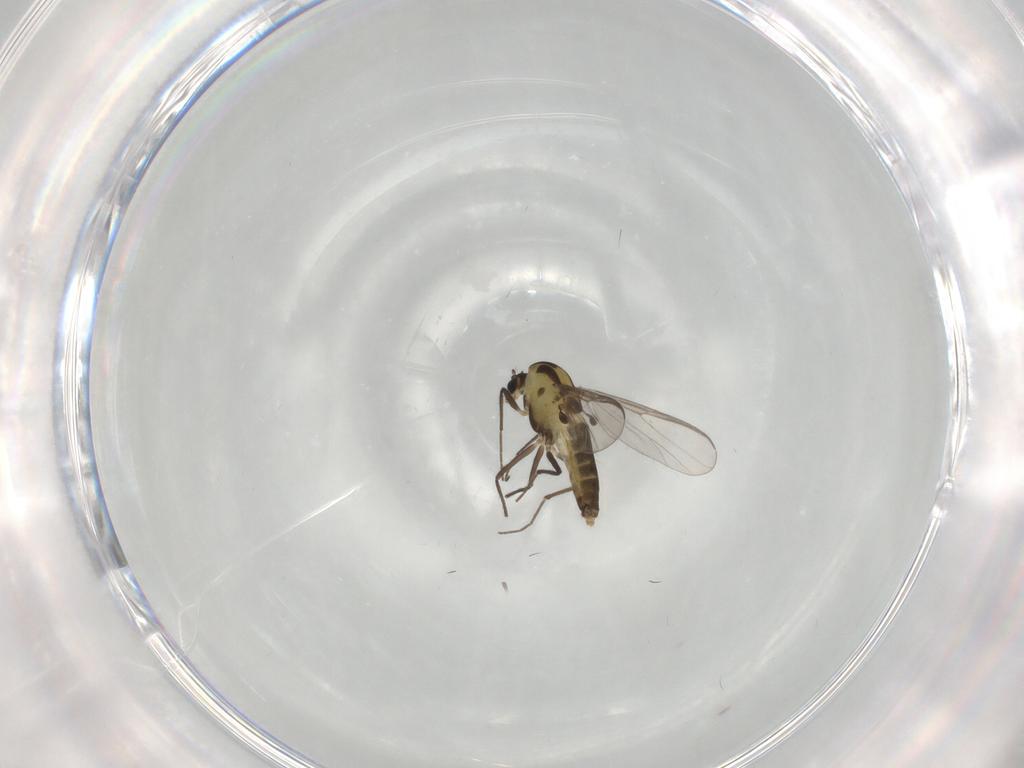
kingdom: Animalia
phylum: Arthropoda
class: Insecta
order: Diptera
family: Chironomidae
